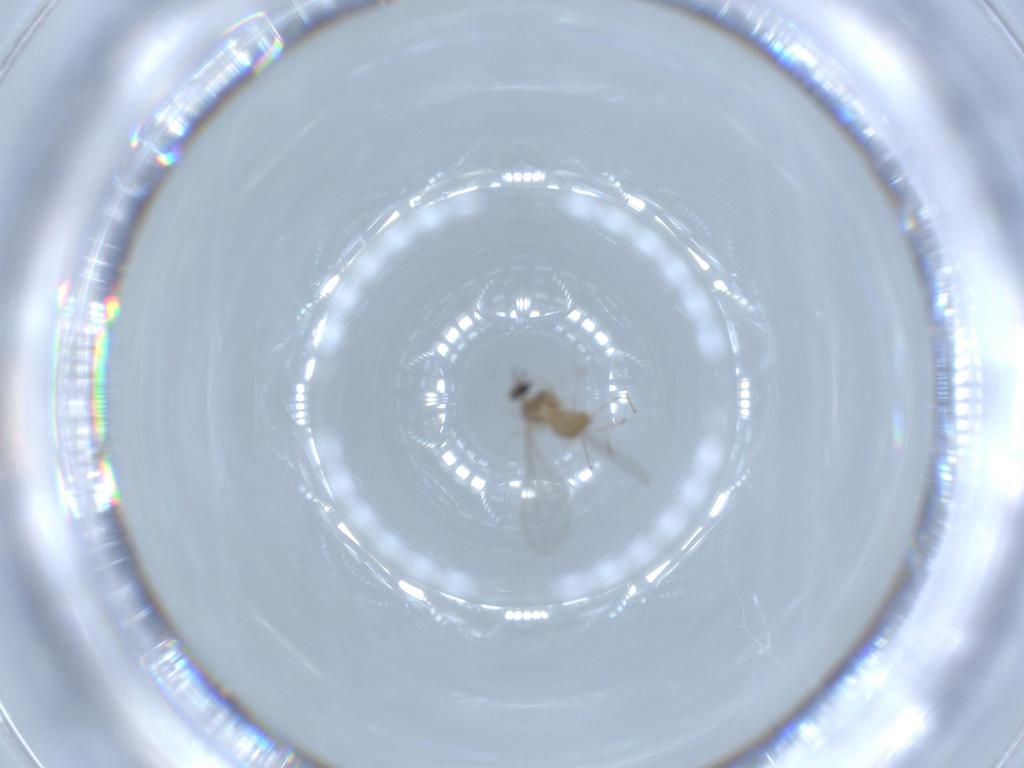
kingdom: Animalia
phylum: Arthropoda
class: Insecta
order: Diptera
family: Cecidomyiidae
